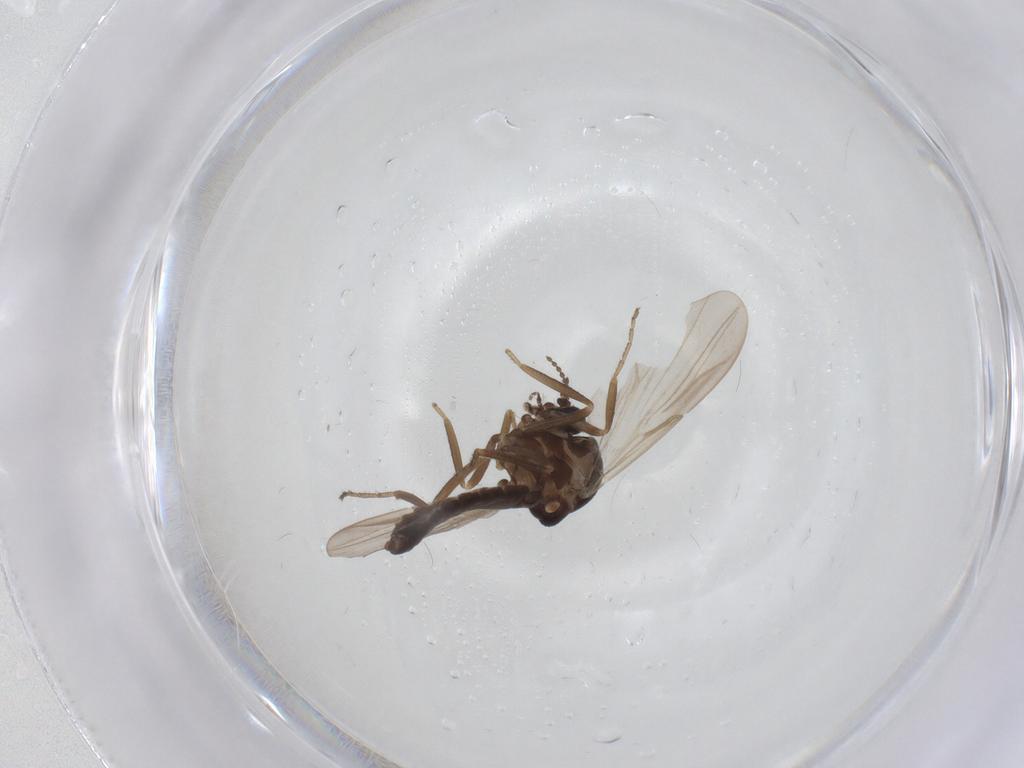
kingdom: Animalia
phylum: Arthropoda
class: Insecta
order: Diptera
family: Ceratopogonidae
